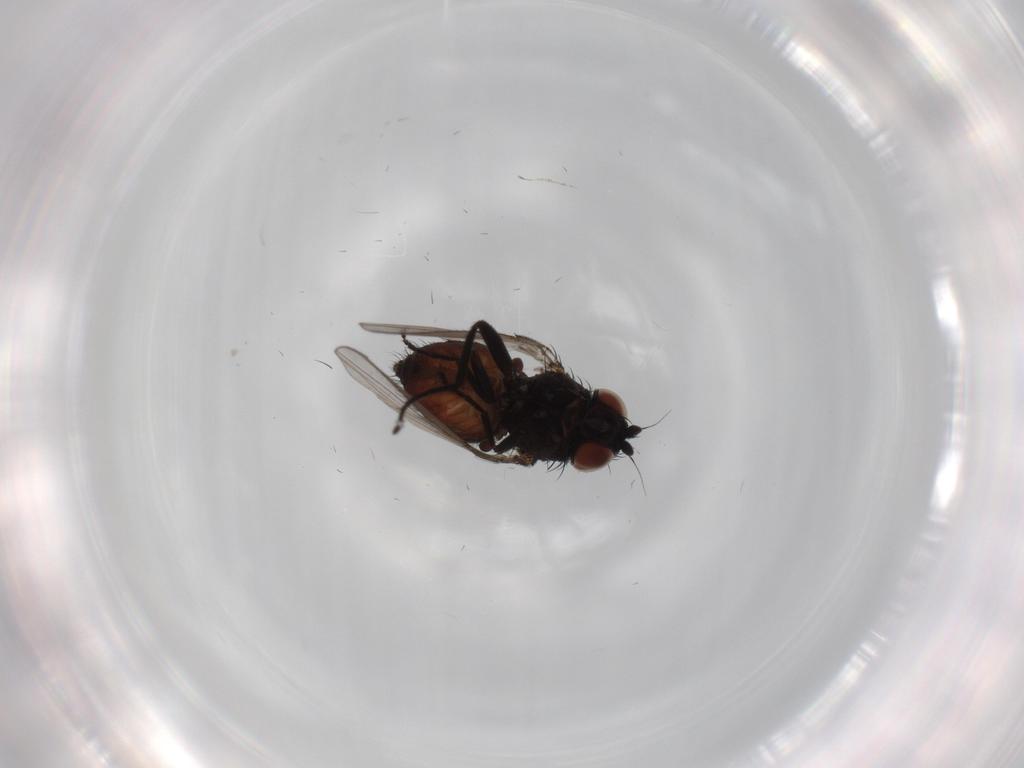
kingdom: Animalia
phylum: Arthropoda
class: Insecta
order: Diptera
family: Milichiidae
